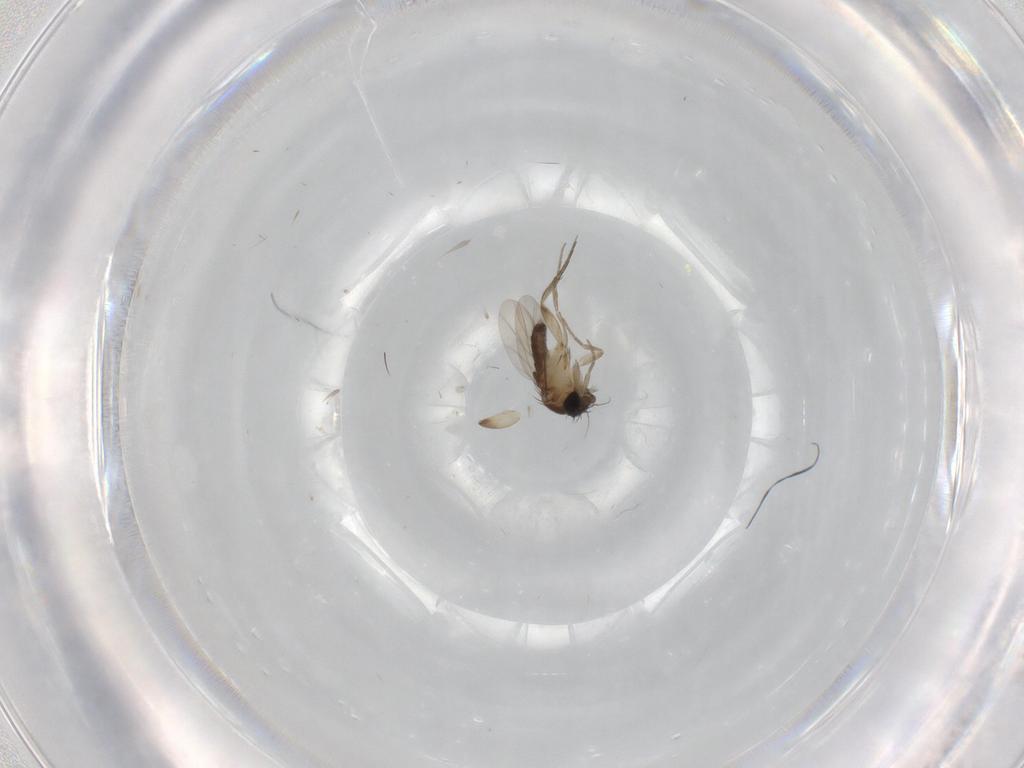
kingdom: Animalia
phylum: Arthropoda
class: Insecta
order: Diptera
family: Phoridae
